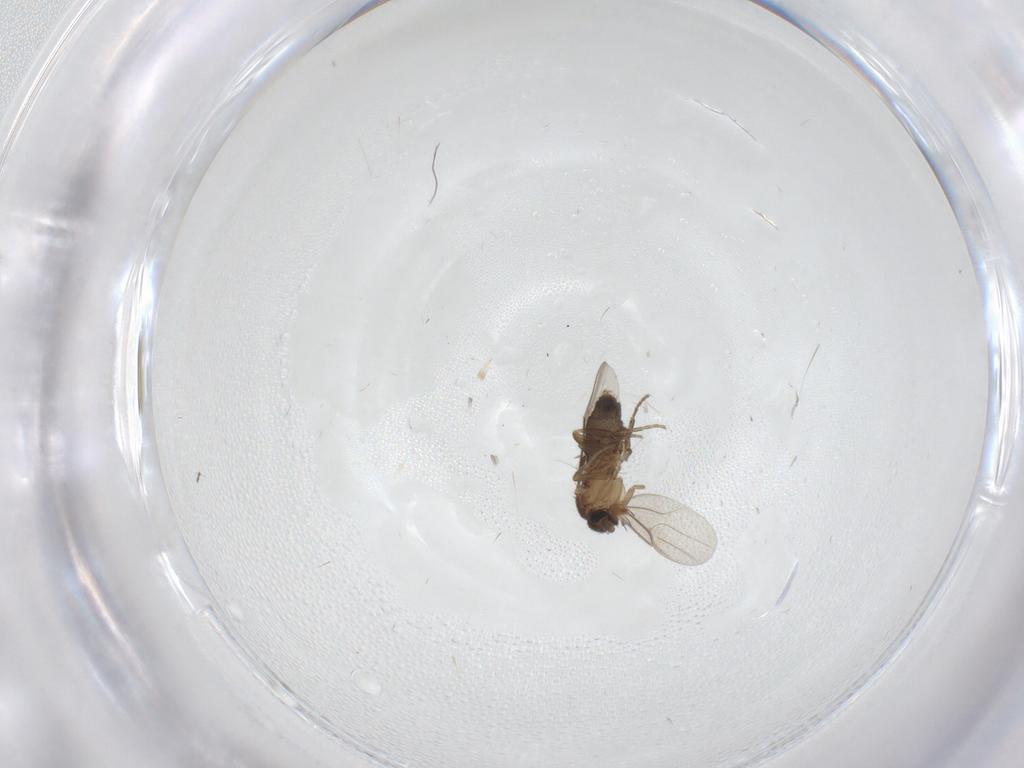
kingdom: Animalia
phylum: Arthropoda
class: Insecta
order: Diptera
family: Phoridae
